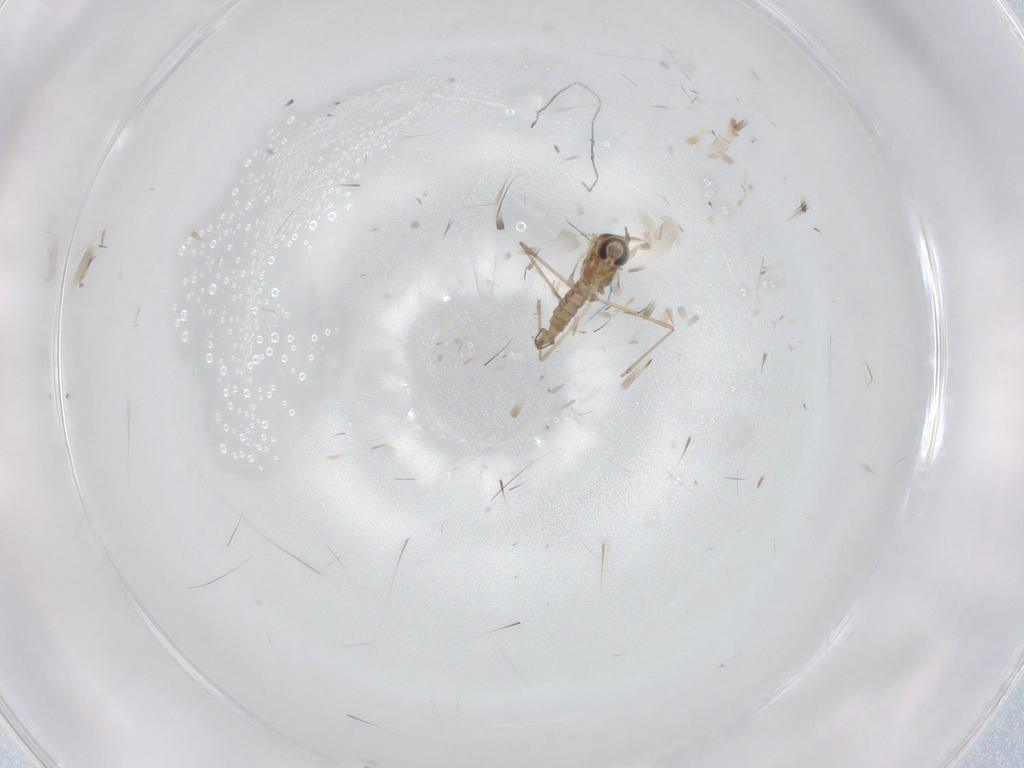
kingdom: Animalia
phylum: Arthropoda
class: Insecta
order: Diptera
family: Cecidomyiidae
